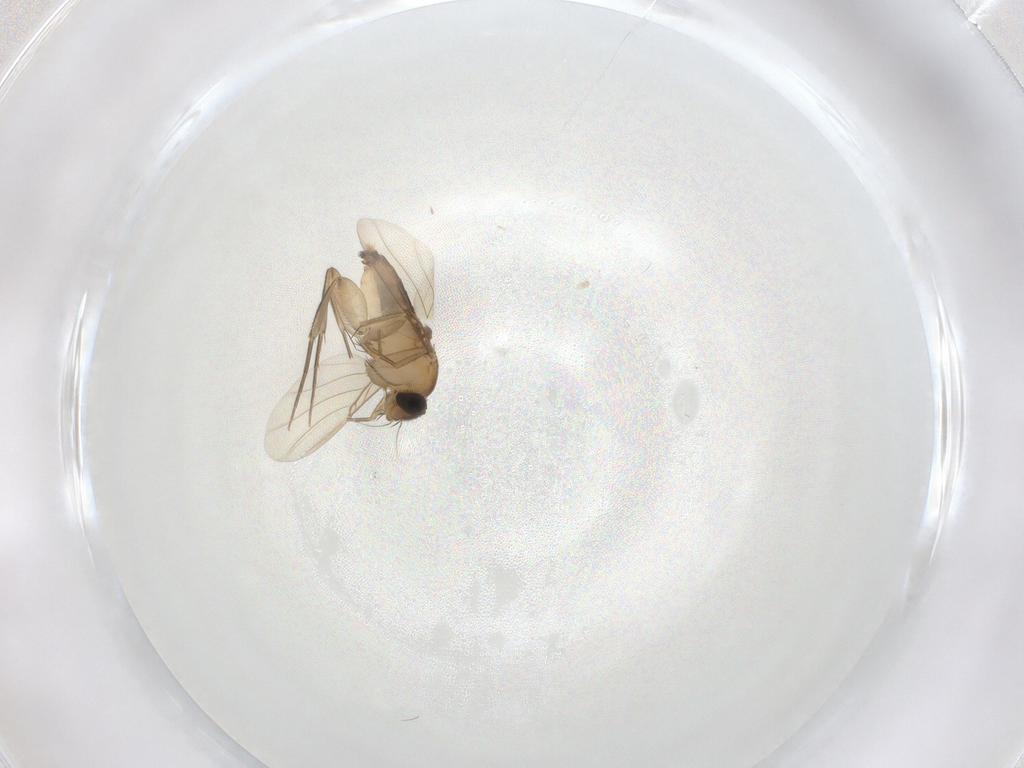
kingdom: Animalia
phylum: Arthropoda
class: Insecta
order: Diptera
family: Phoridae
